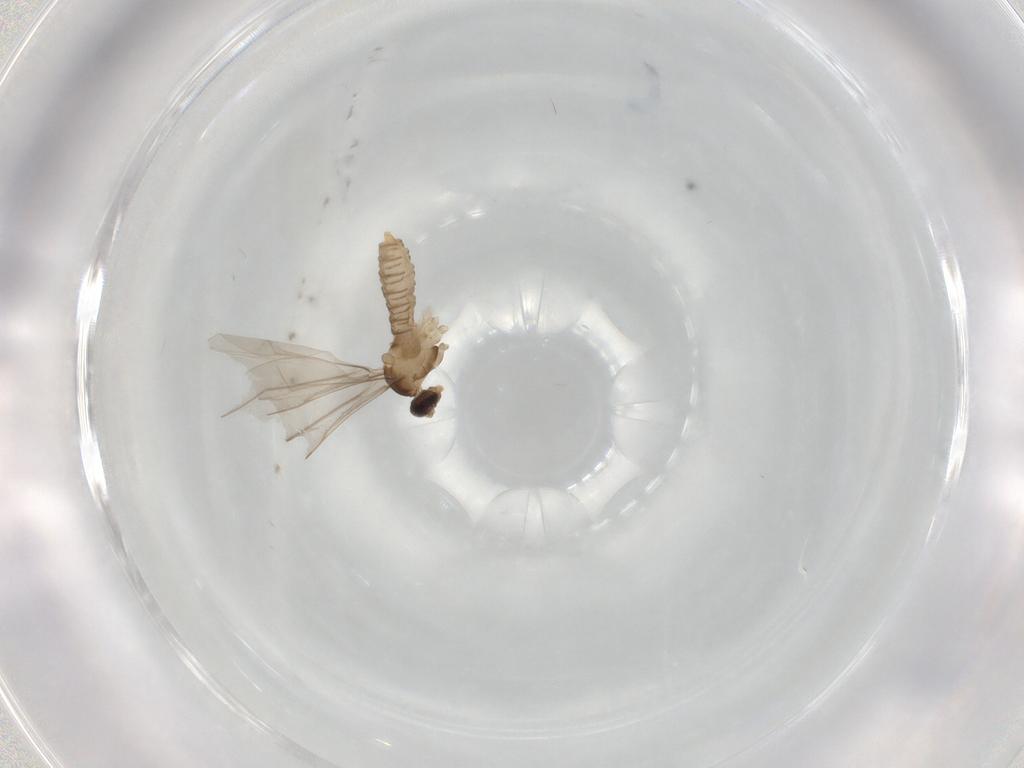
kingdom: Animalia
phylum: Arthropoda
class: Insecta
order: Diptera
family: Cecidomyiidae
